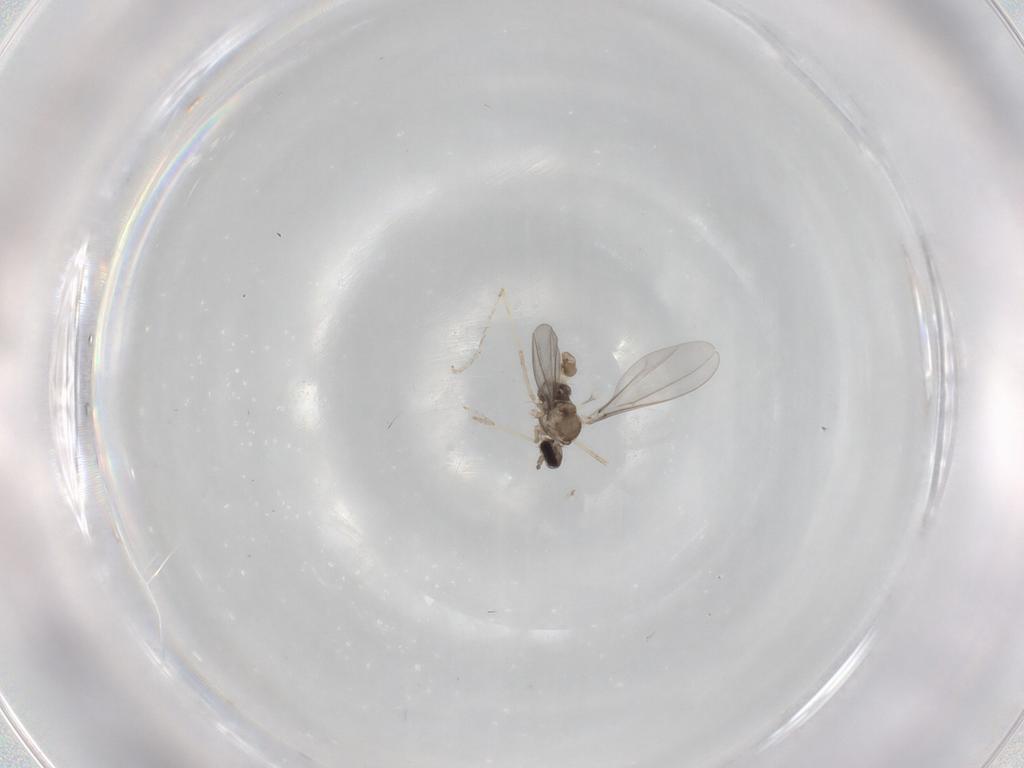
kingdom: Animalia
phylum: Arthropoda
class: Insecta
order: Diptera
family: Cecidomyiidae
